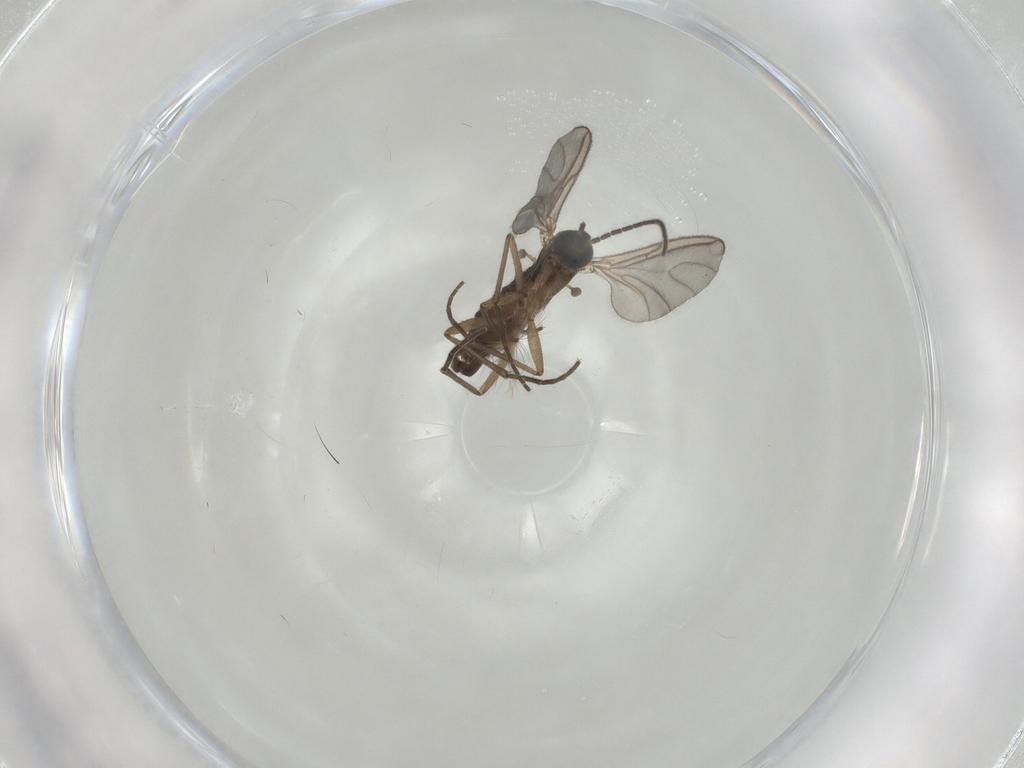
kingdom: Animalia
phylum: Arthropoda
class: Insecta
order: Diptera
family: Sciaridae
